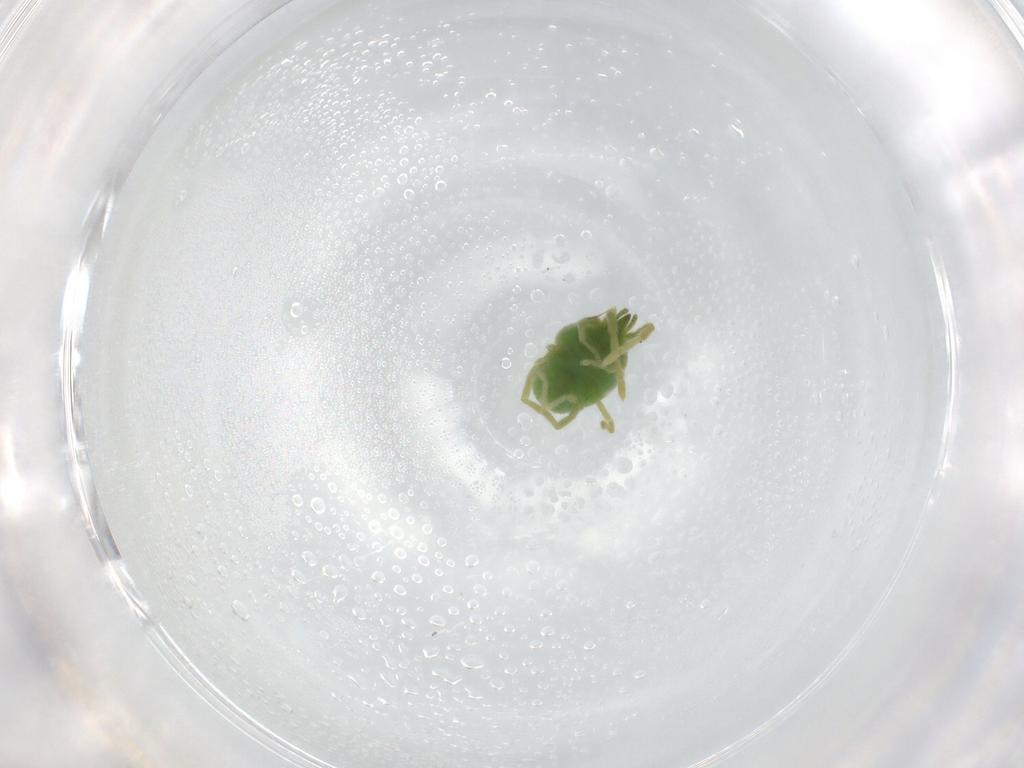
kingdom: Animalia
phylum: Arthropoda
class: Arachnida
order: Trombidiformes
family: Erythraeidae
